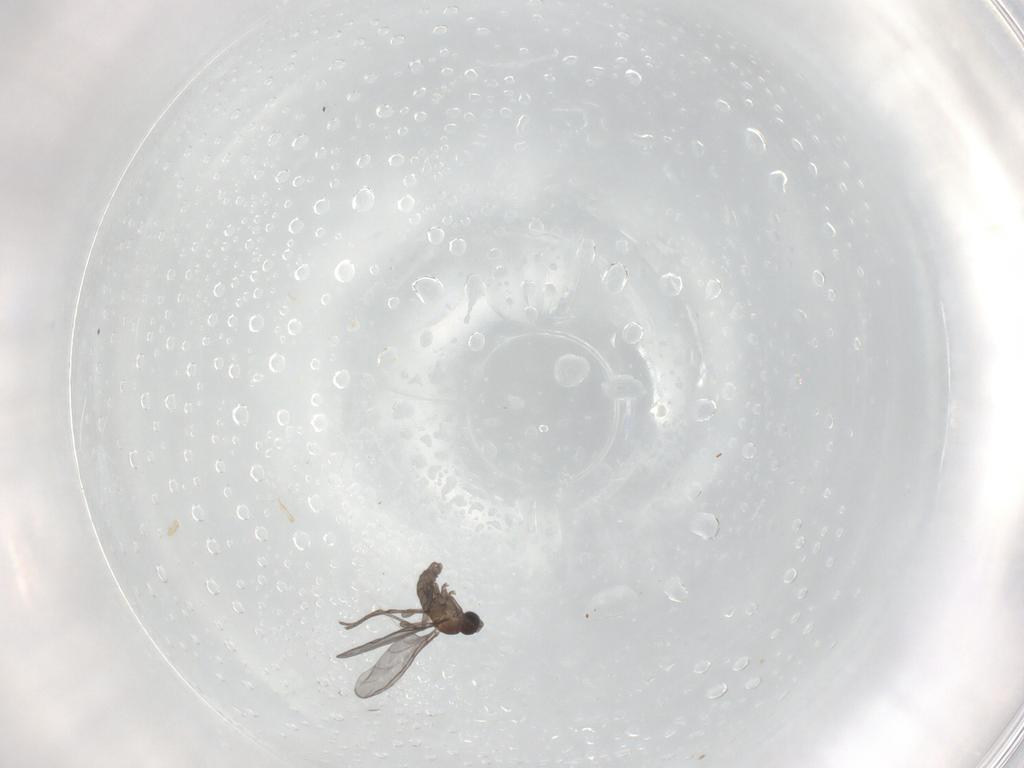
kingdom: Animalia
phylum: Arthropoda
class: Insecta
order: Diptera
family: Sciaridae
